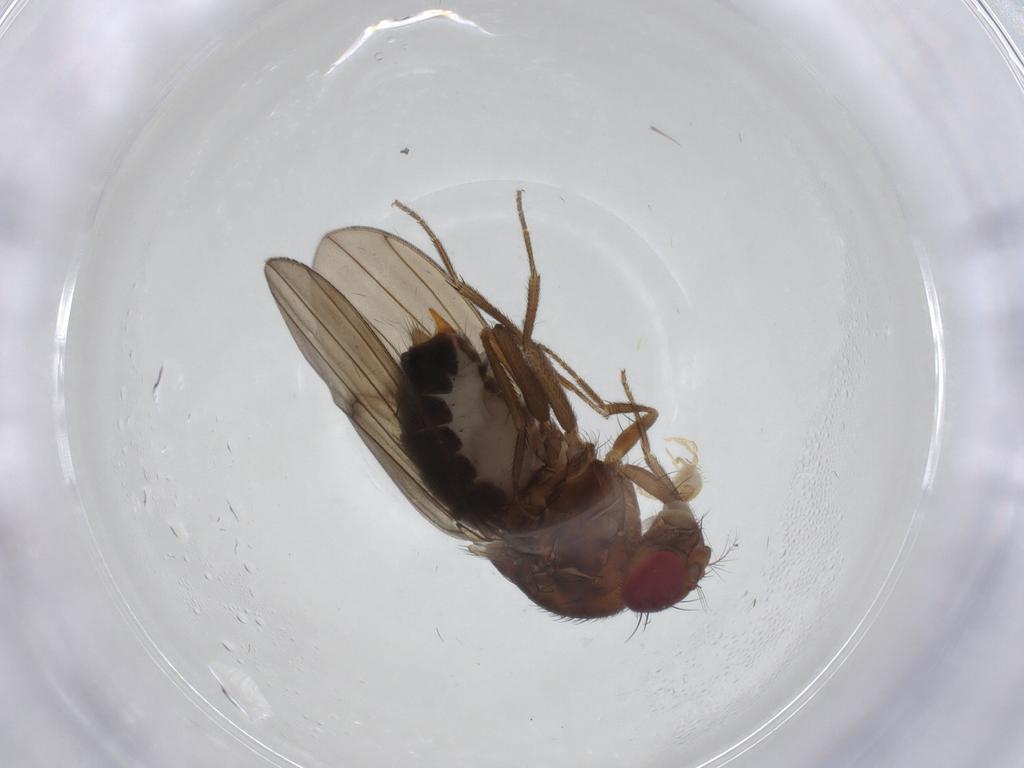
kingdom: Animalia
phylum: Arthropoda
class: Insecta
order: Diptera
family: Drosophilidae
